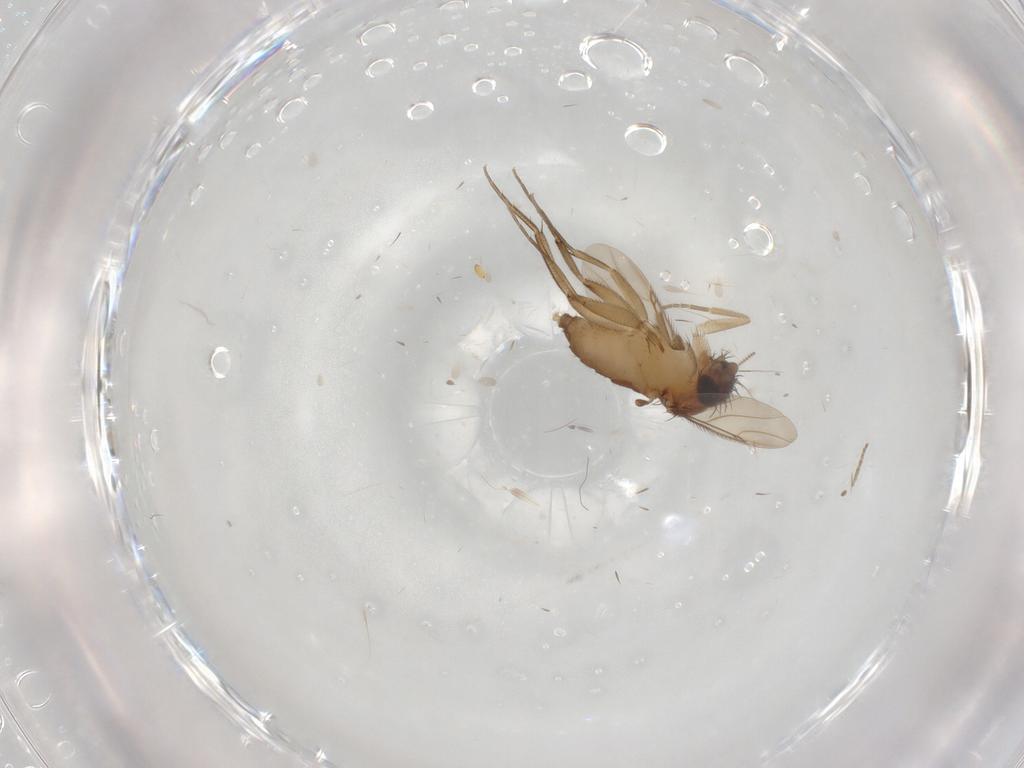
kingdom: Animalia
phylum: Arthropoda
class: Insecta
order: Diptera
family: Phoridae
